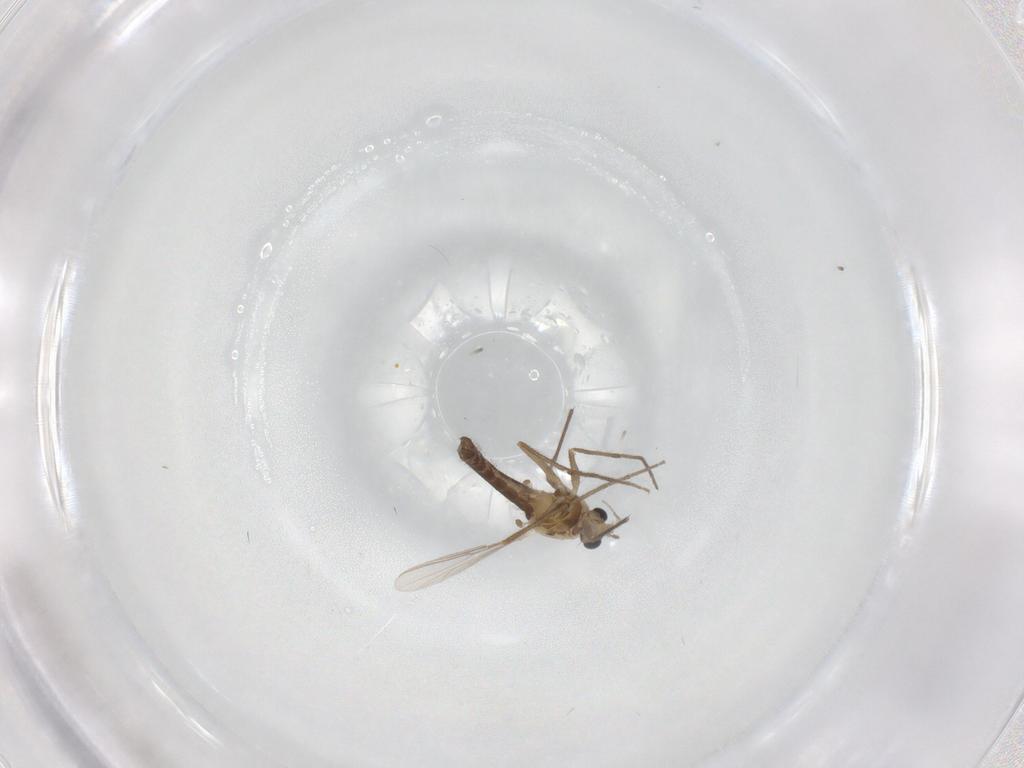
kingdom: Animalia
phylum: Arthropoda
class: Insecta
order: Diptera
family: Chironomidae
